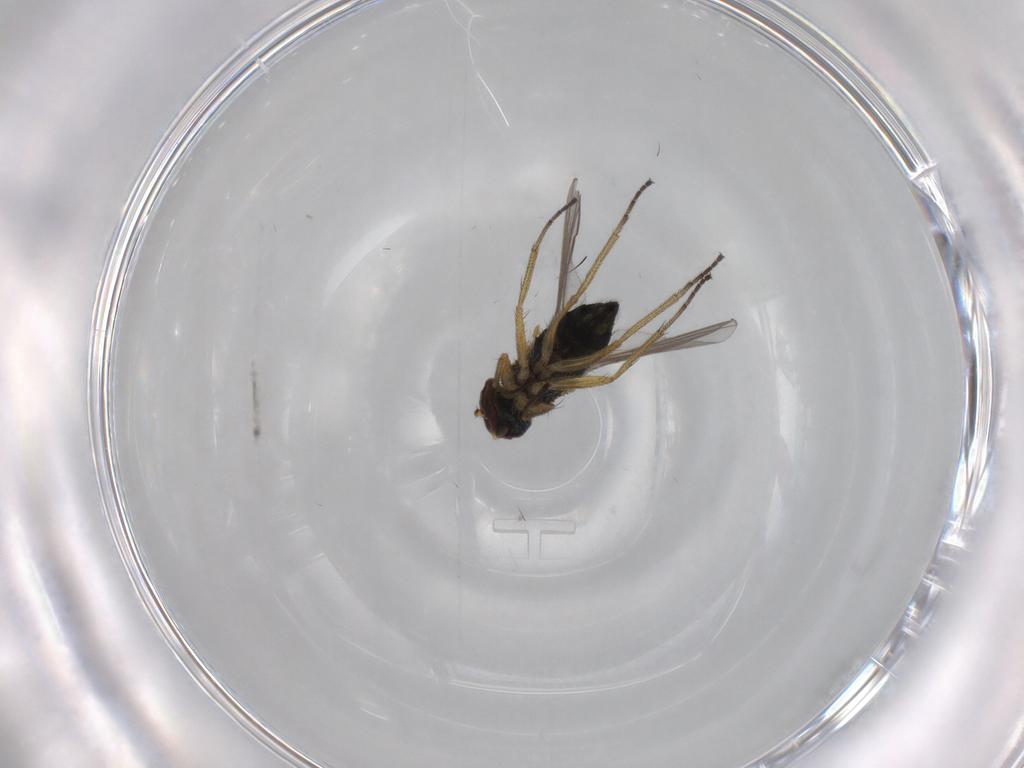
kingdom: Animalia
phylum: Arthropoda
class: Insecta
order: Diptera
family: Dolichopodidae
